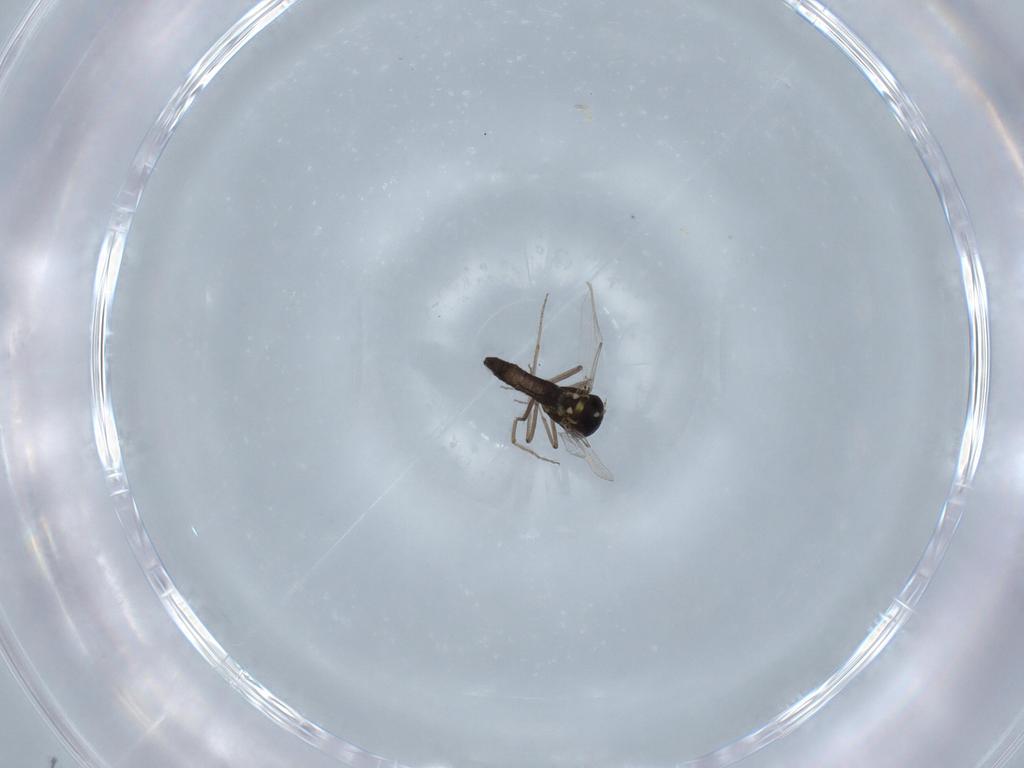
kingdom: Animalia
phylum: Arthropoda
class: Insecta
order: Diptera
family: Ceratopogonidae
